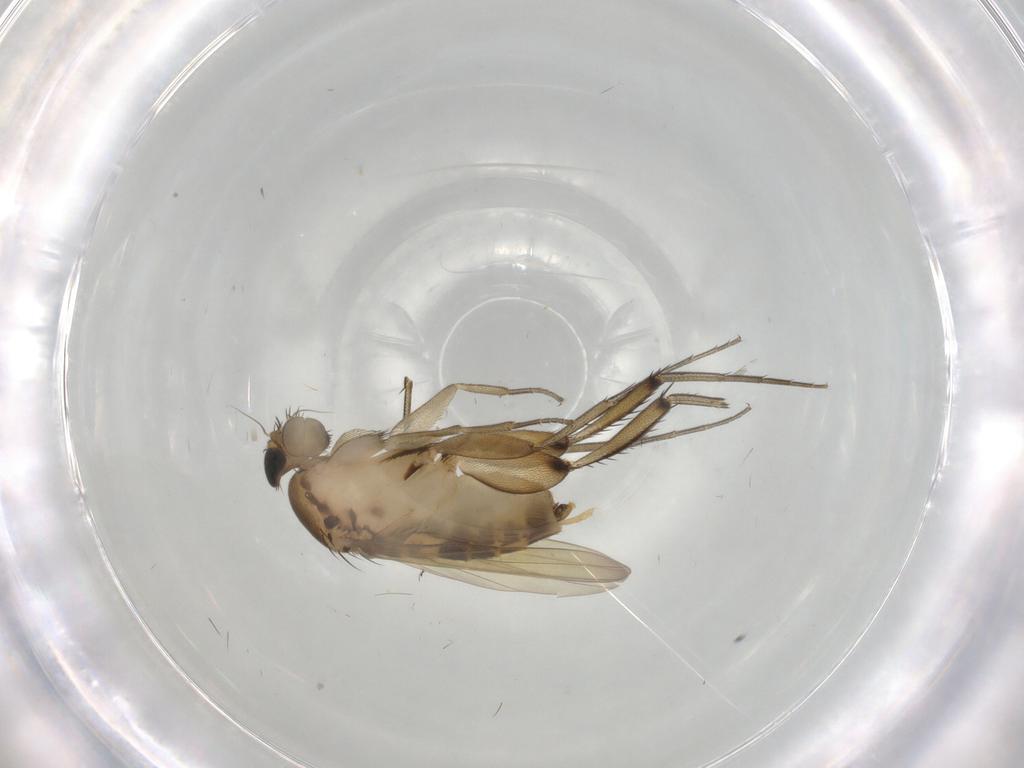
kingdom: Animalia
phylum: Arthropoda
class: Insecta
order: Diptera
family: Phoridae
